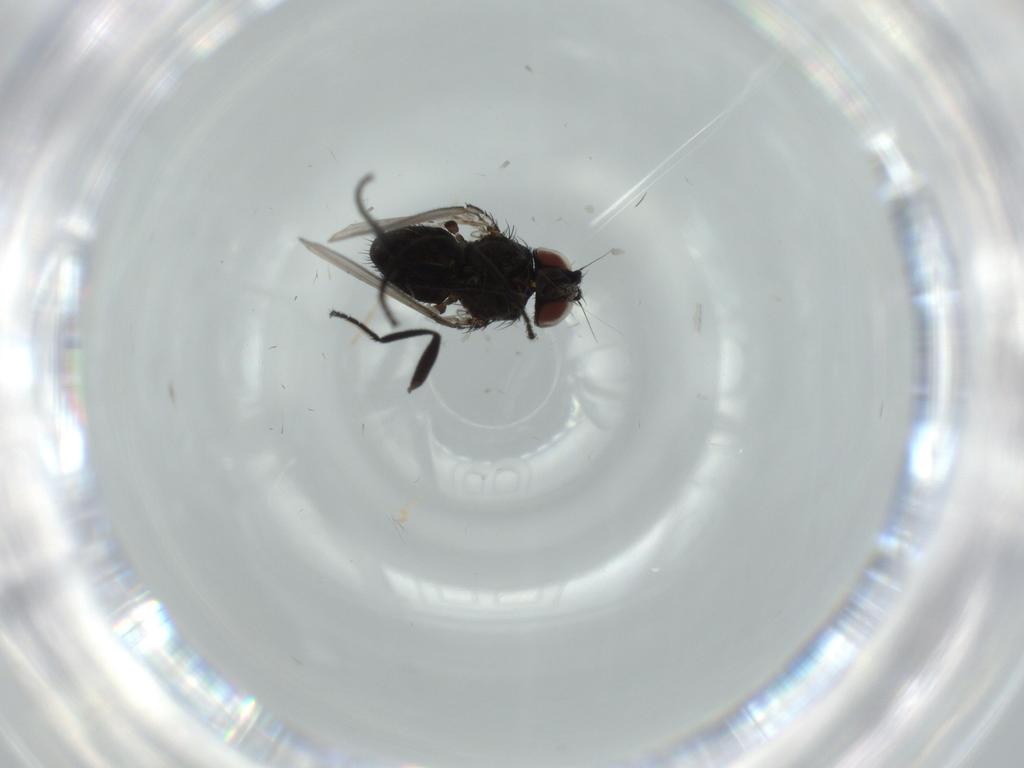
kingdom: Animalia
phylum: Arthropoda
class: Insecta
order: Diptera
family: Milichiidae
